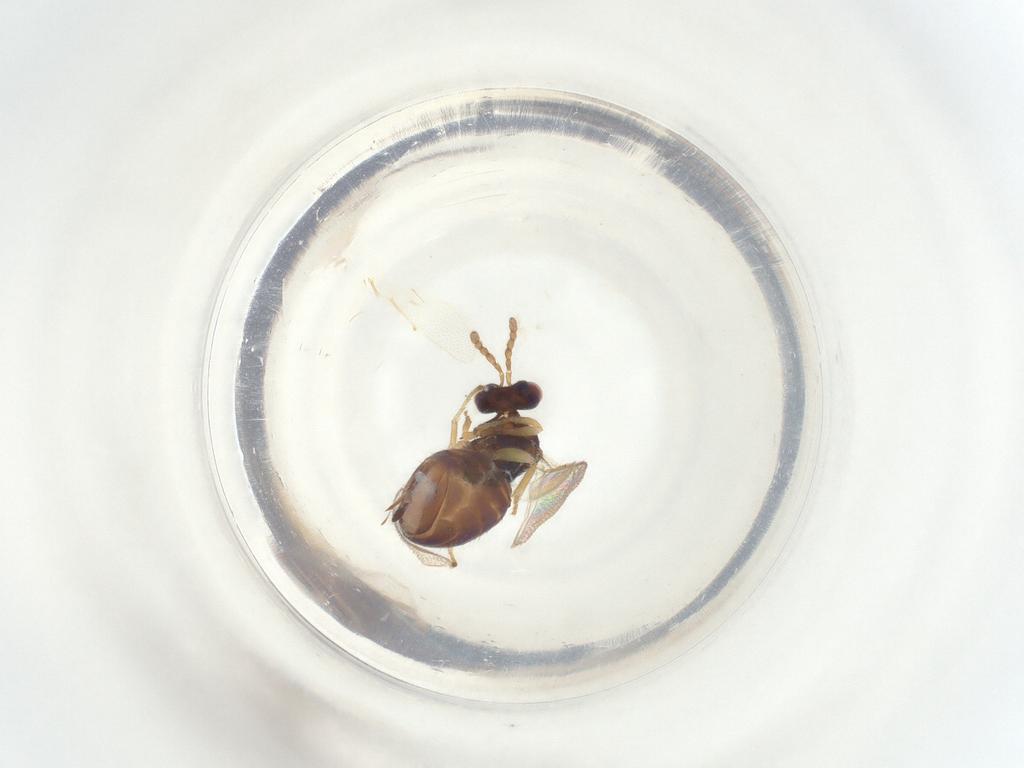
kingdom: Animalia
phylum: Arthropoda
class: Insecta
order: Hymenoptera
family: Eulophidae
